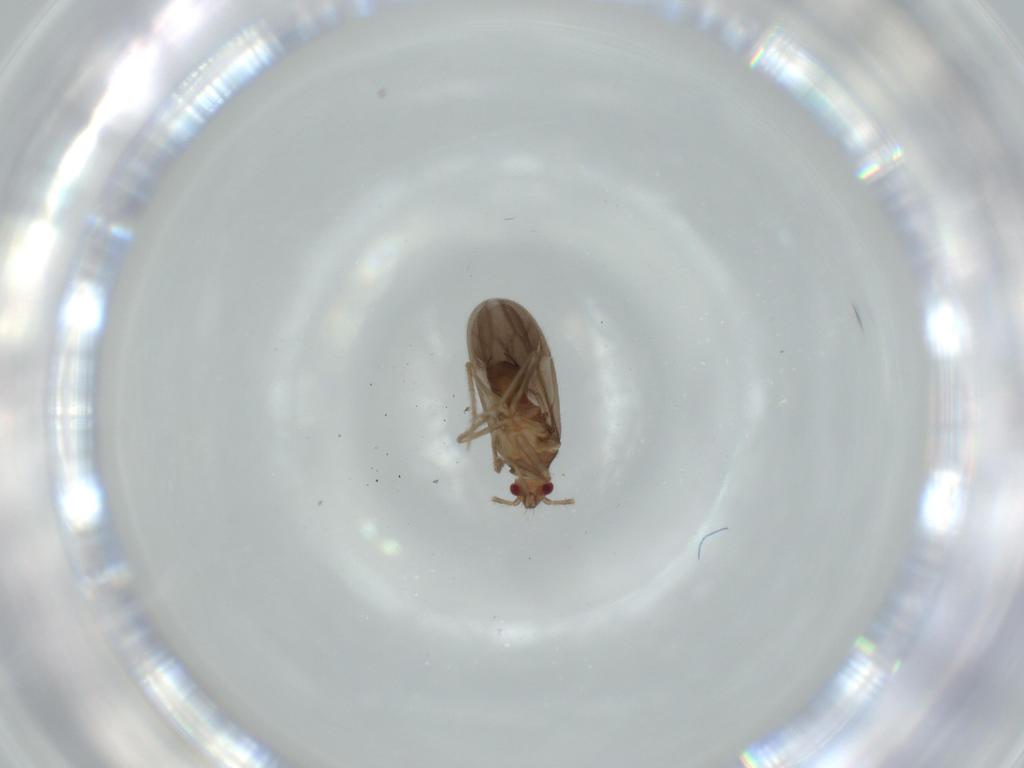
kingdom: Animalia
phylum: Arthropoda
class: Insecta
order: Hemiptera
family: Ceratocombidae
